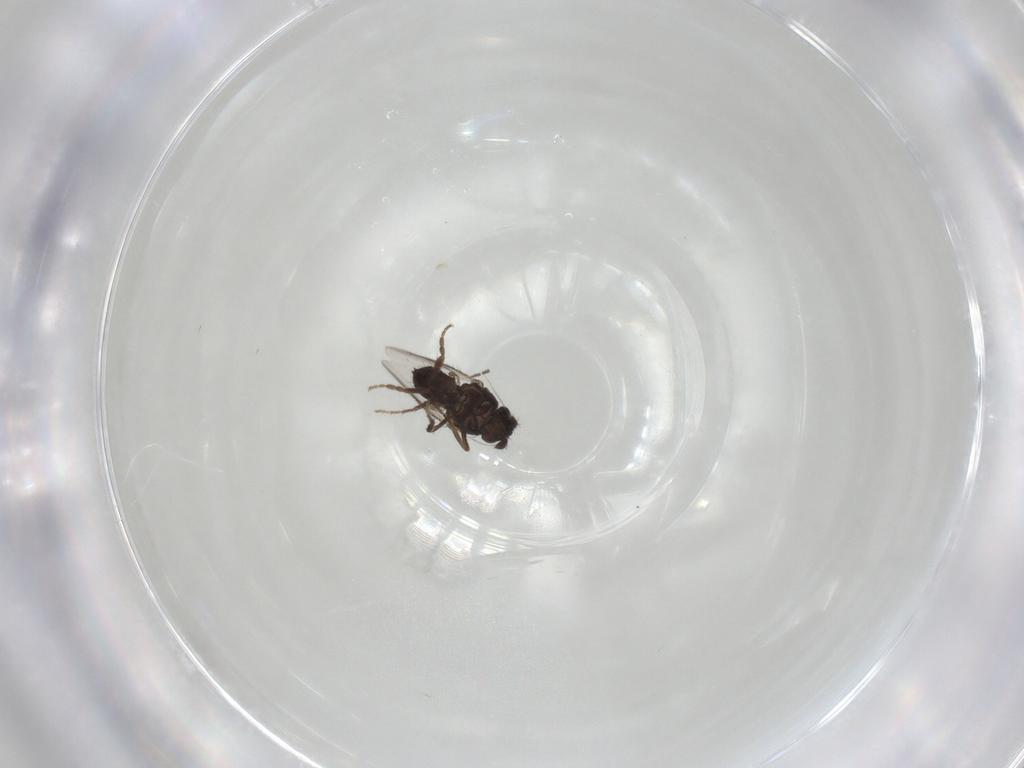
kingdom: Animalia
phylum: Arthropoda
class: Insecta
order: Diptera
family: Sphaeroceridae
